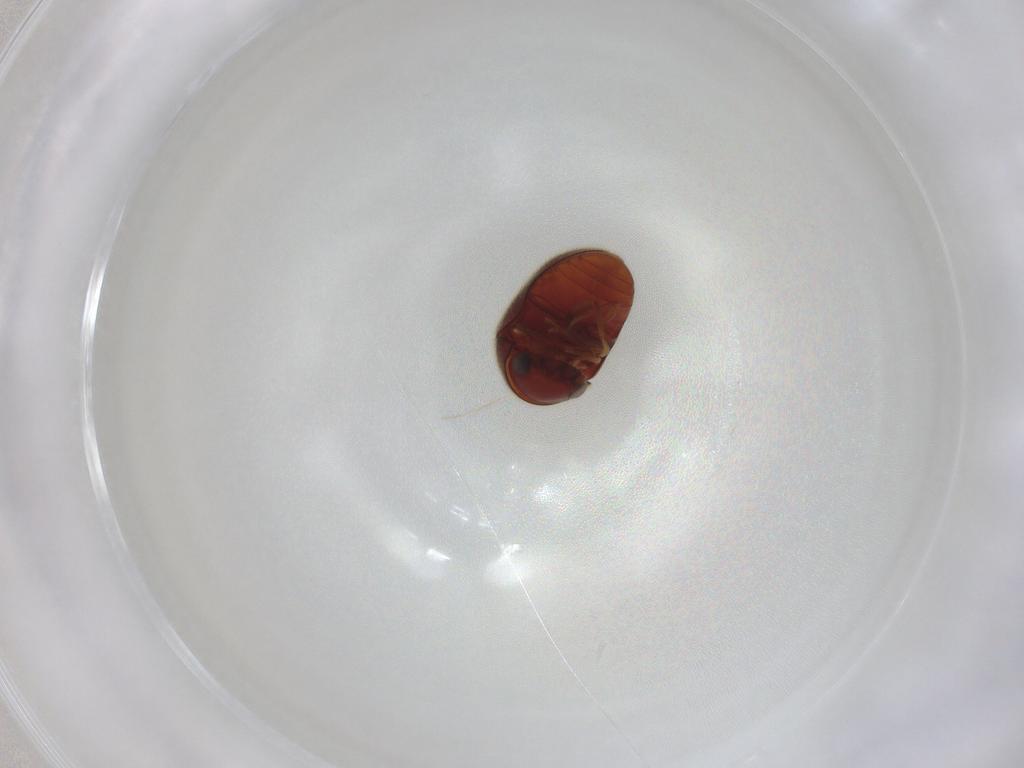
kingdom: Animalia
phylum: Arthropoda
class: Insecta
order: Coleoptera
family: Ptinidae
